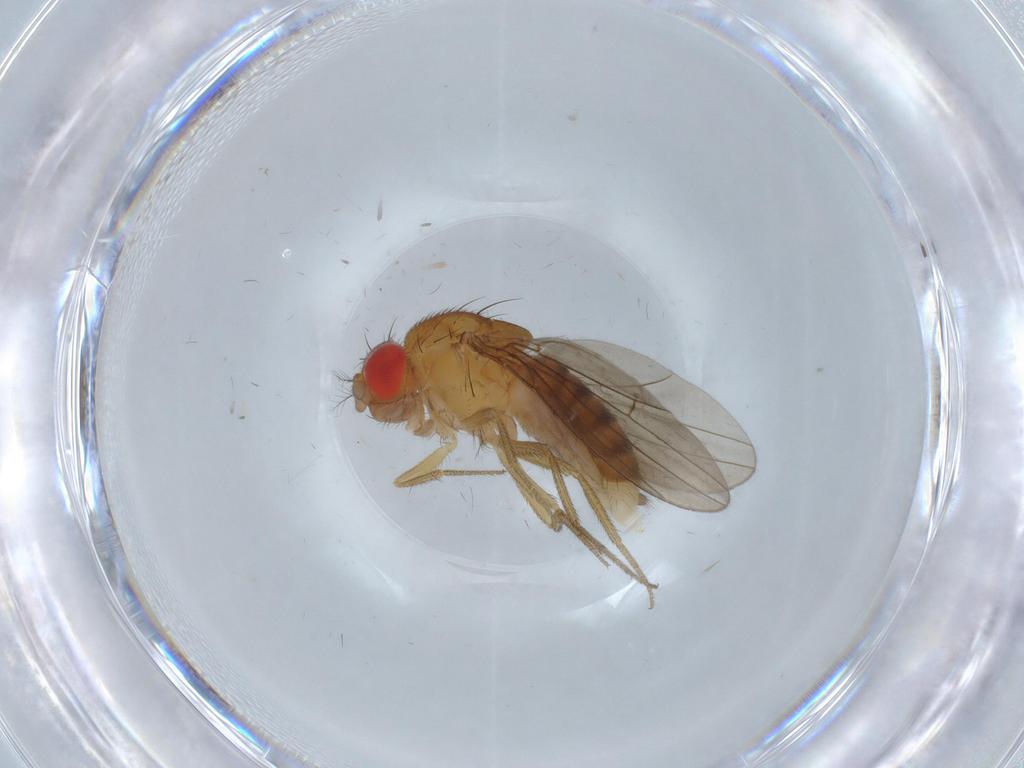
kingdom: Animalia
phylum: Arthropoda
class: Insecta
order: Diptera
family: Drosophilidae
